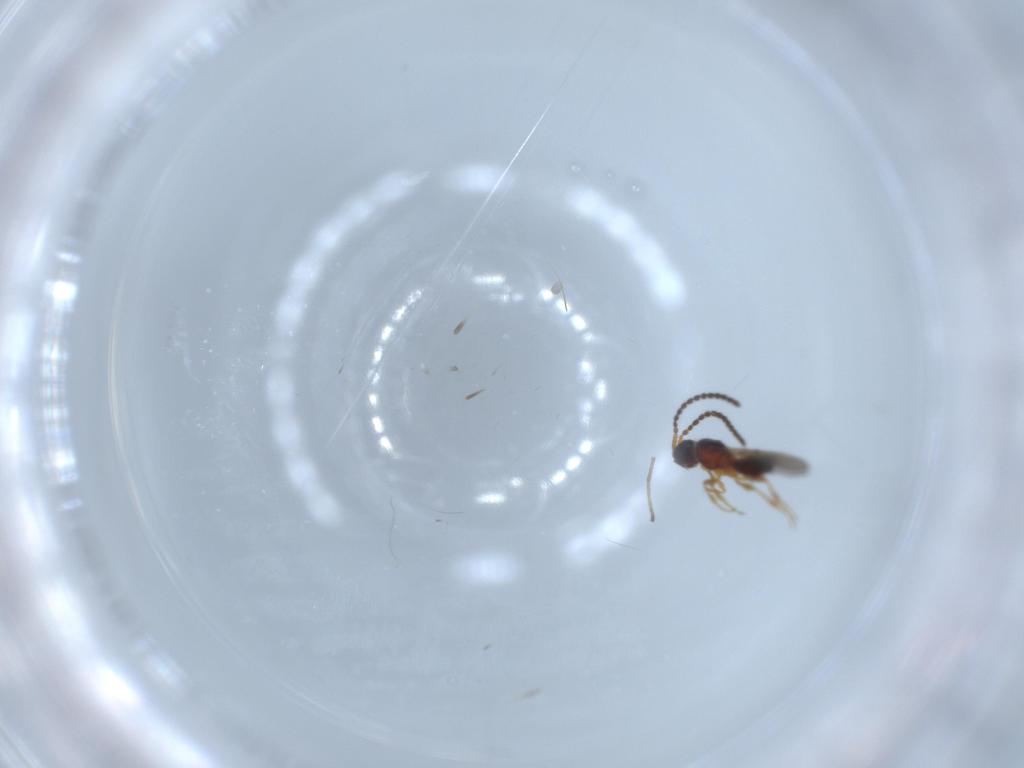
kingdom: Animalia
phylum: Arthropoda
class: Insecta
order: Hymenoptera
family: Diapriidae
